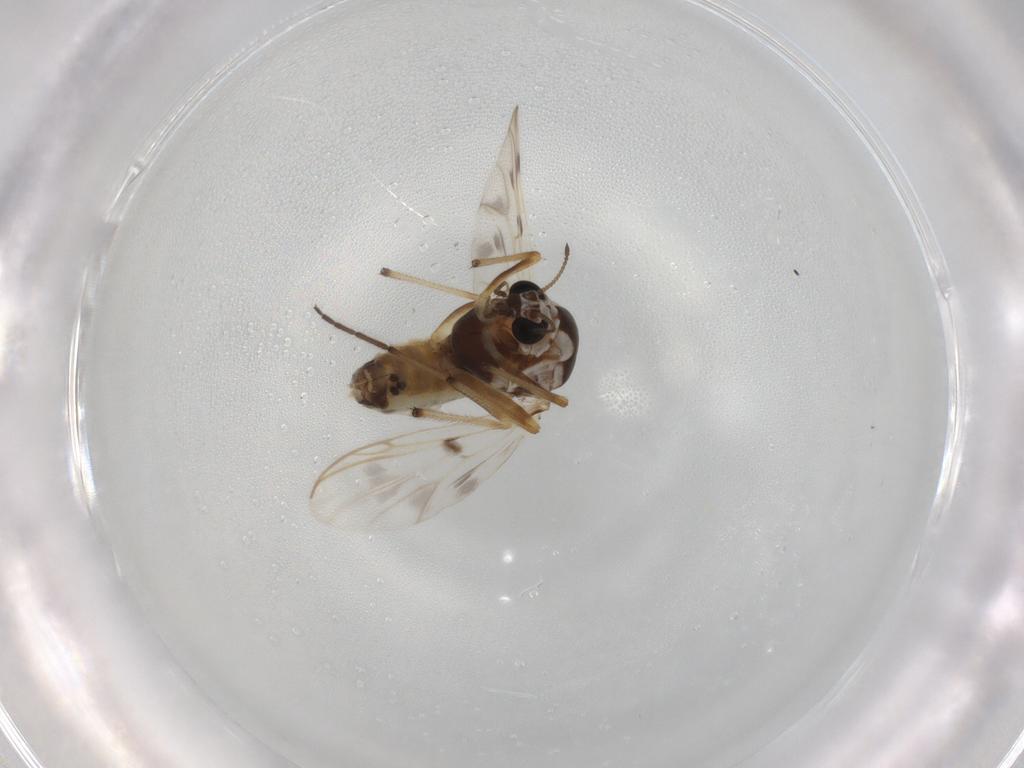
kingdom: Animalia
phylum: Arthropoda
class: Insecta
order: Diptera
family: Chironomidae
